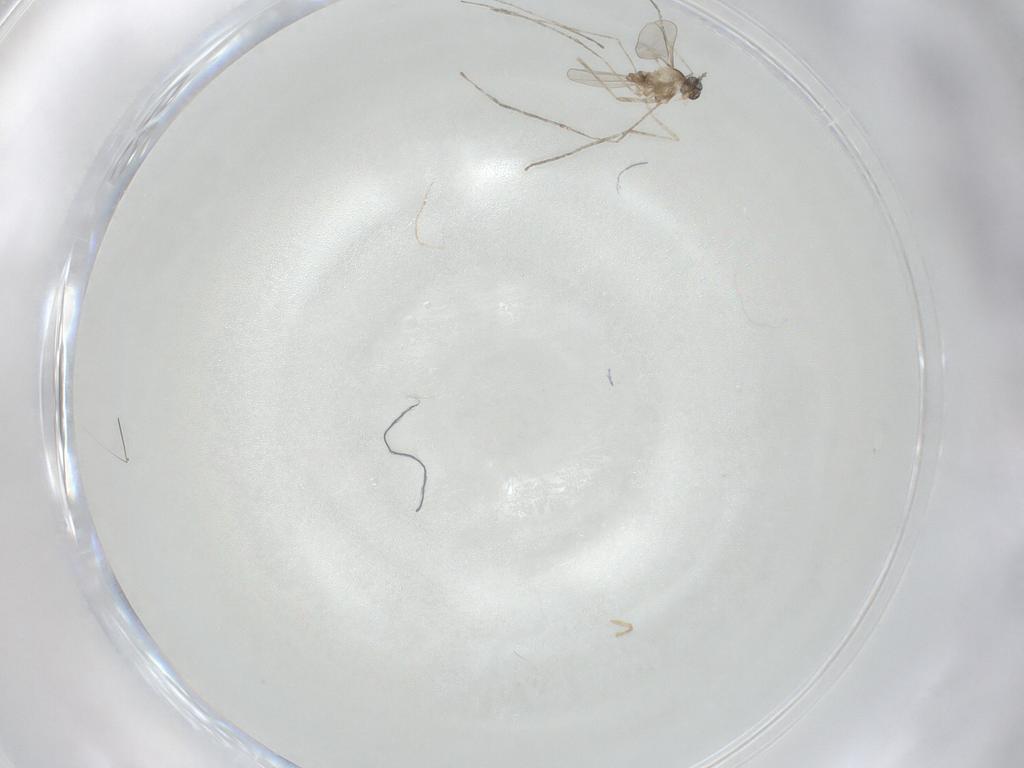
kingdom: Animalia
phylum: Arthropoda
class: Insecta
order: Diptera
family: Cecidomyiidae
